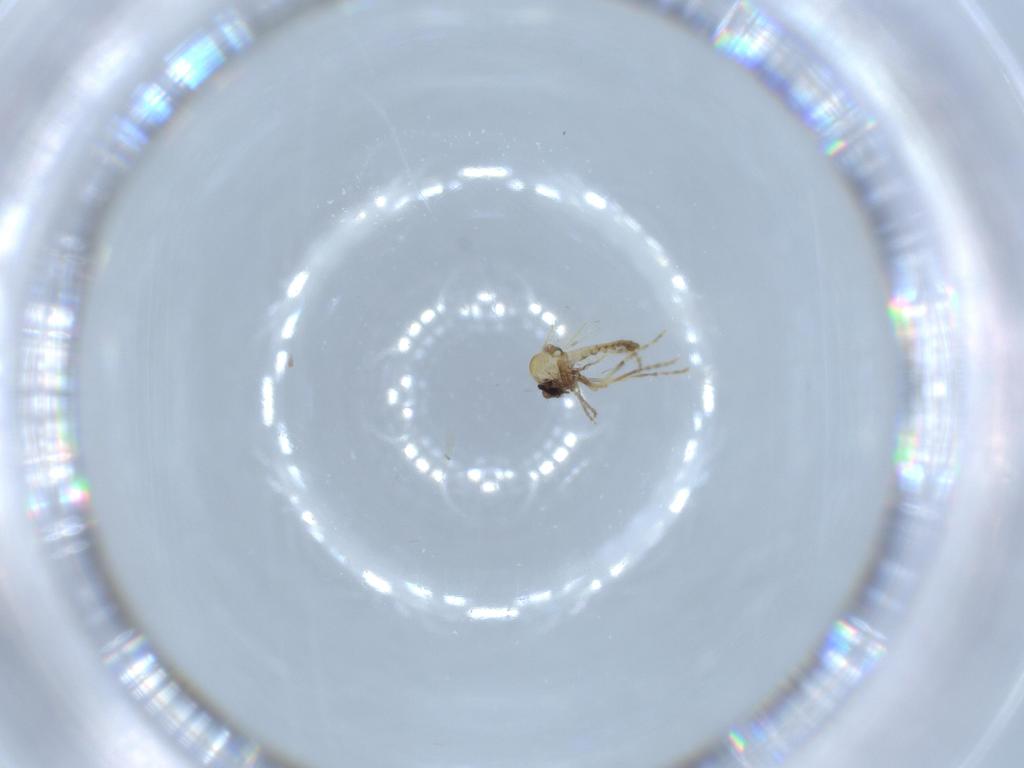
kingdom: Animalia
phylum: Arthropoda
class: Insecta
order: Diptera
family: Ceratopogonidae
